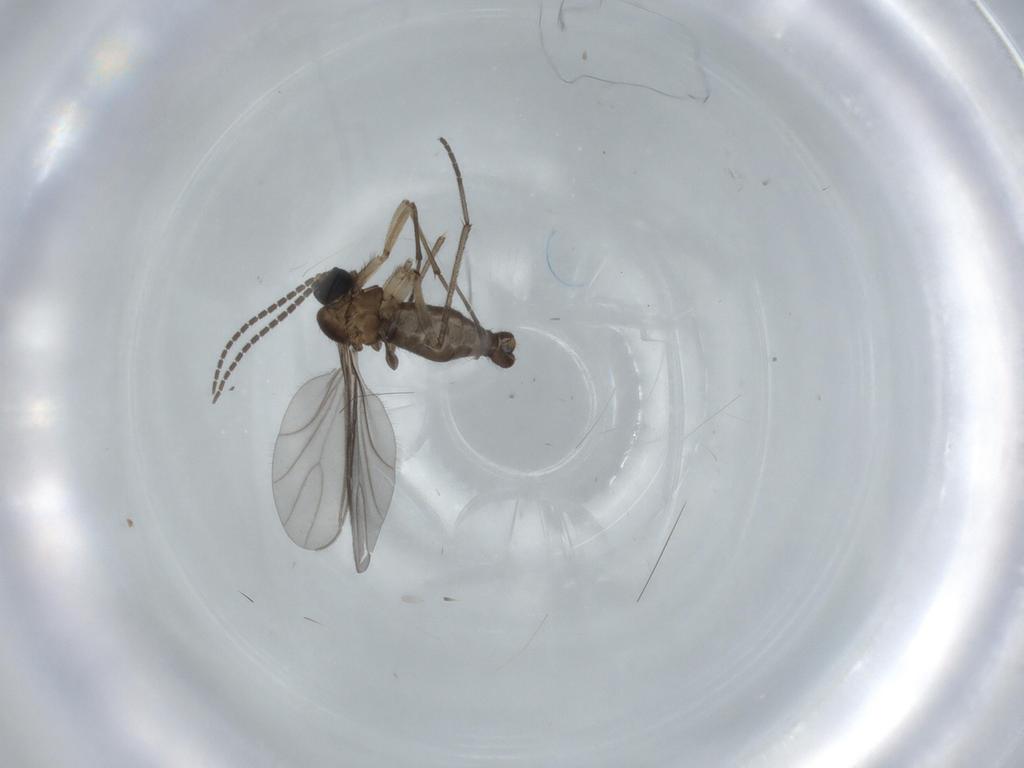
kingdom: Animalia
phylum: Arthropoda
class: Insecta
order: Diptera
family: Sciaridae
